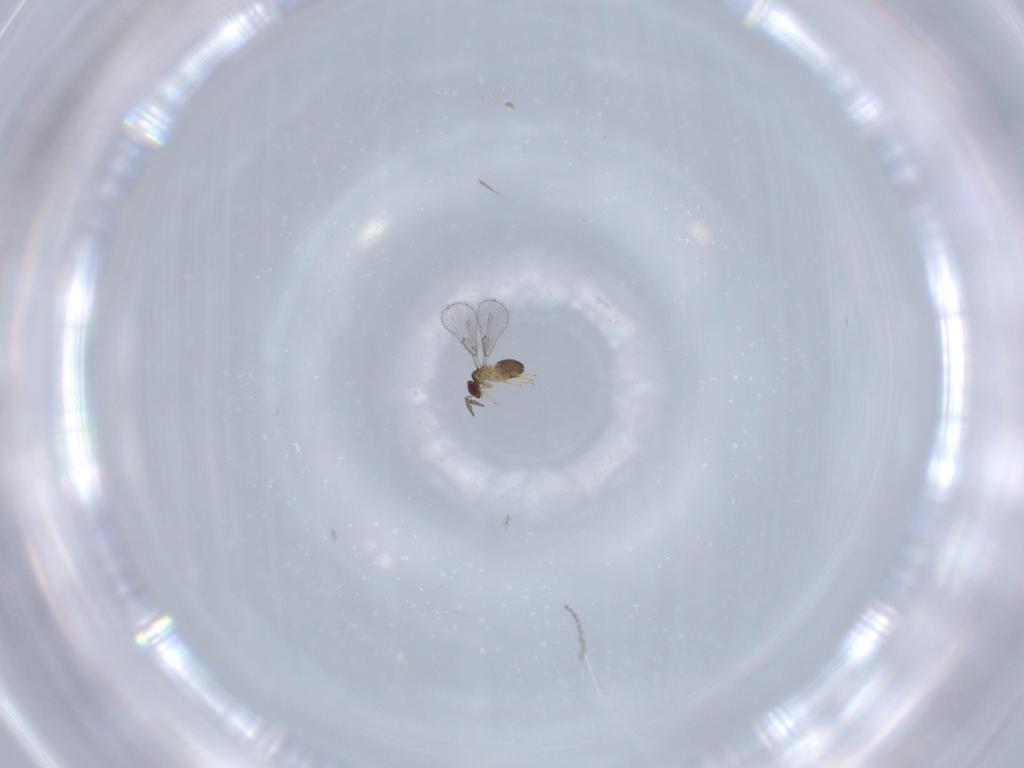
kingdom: Animalia
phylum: Arthropoda
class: Insecta
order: Hymenoptera
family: Trichogrammatidae
